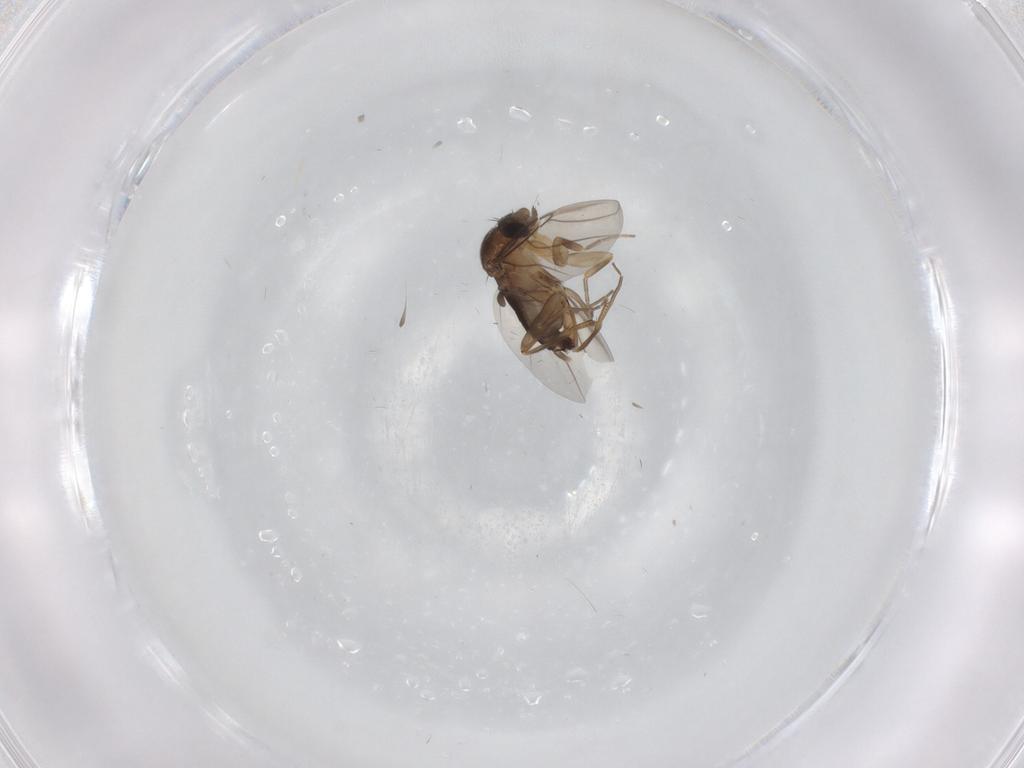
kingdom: Animalia
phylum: Arthropoda
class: Insecta
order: Diptera
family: Phoridae
